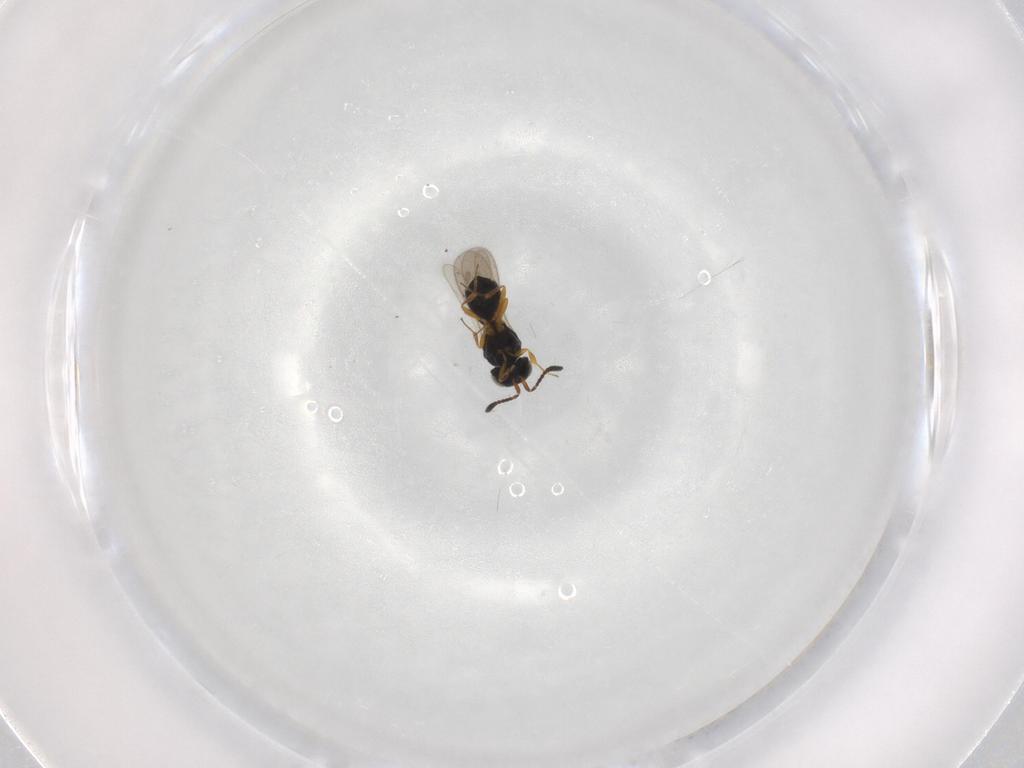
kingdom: Animalia
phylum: Arthropoda
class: Insecta
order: Hymenoptera
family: Scelionidae
